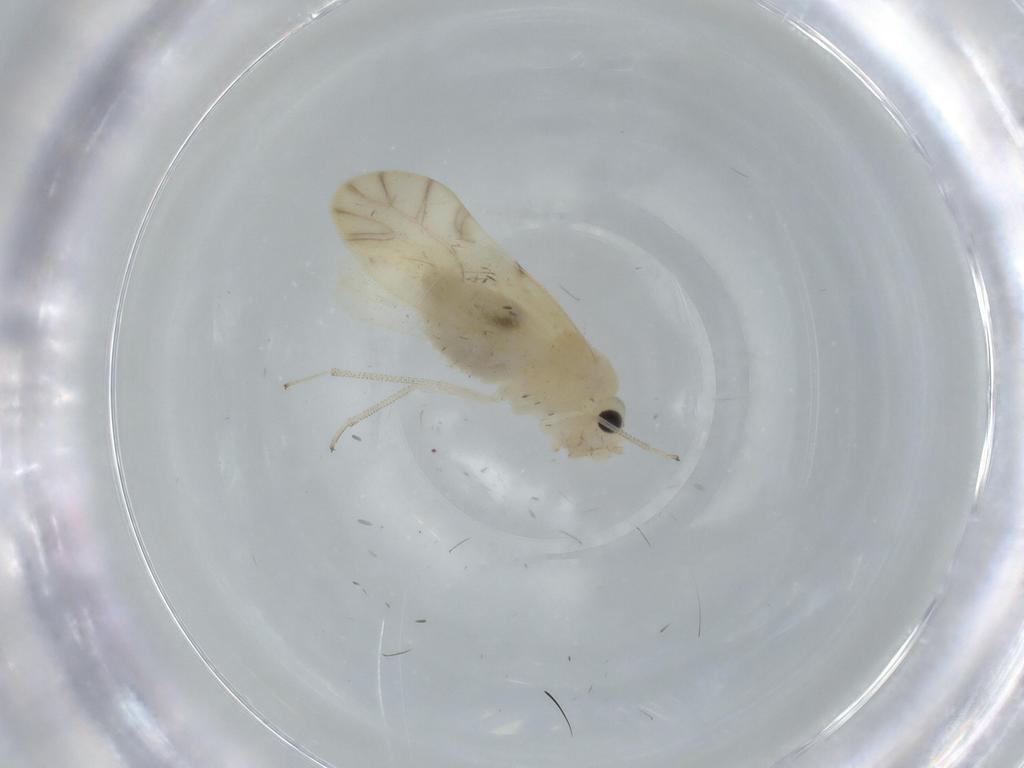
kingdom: Animalia
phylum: Arthropoda
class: Insecta
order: Psocodea
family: Caeciliusidae
